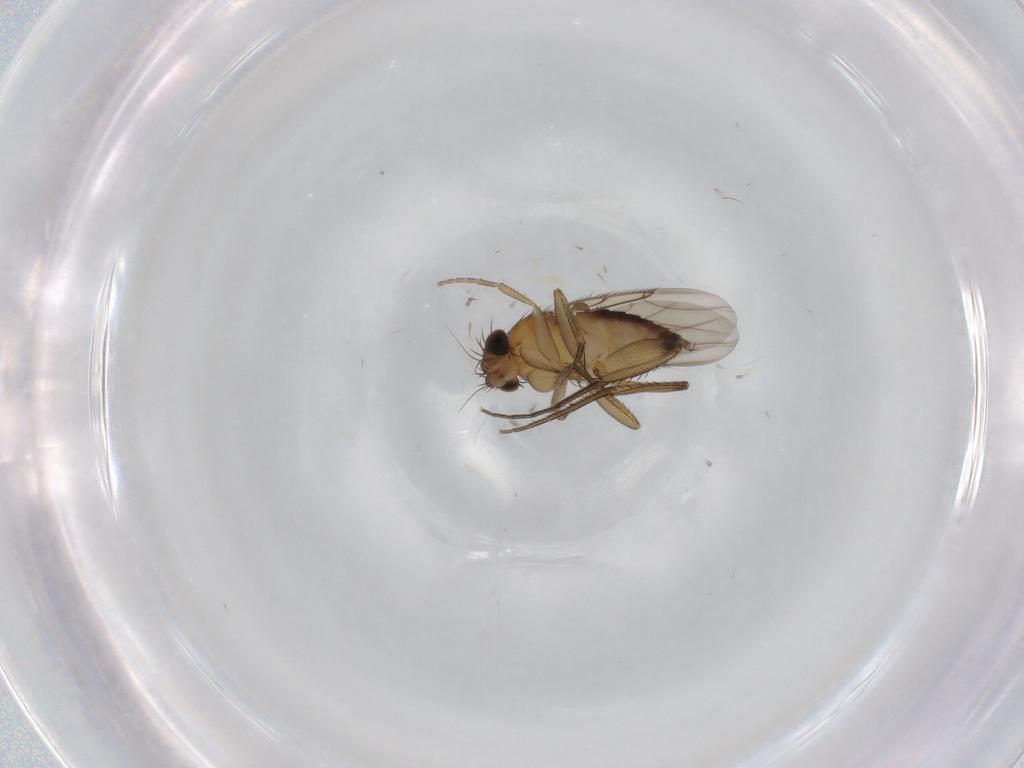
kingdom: Animalia
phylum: Arthropoda
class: Insecta
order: Diptera
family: Phoridae
